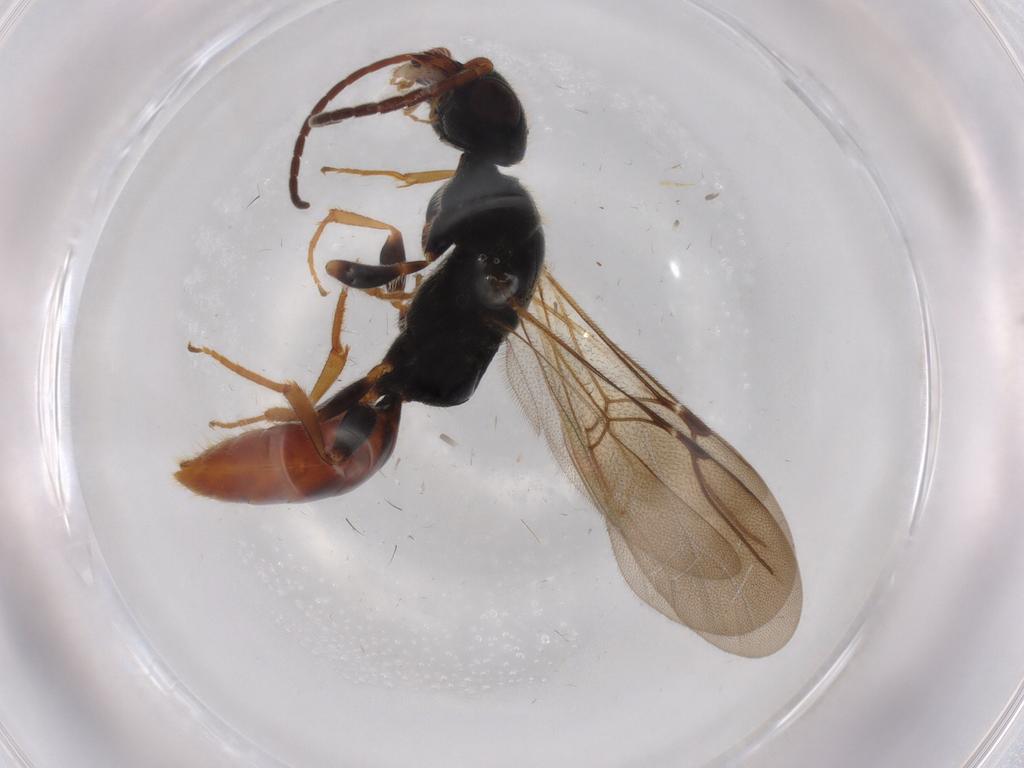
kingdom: Animalia
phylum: Arthropoda
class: Insecta
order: Hymenoptera
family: Bethylidae
